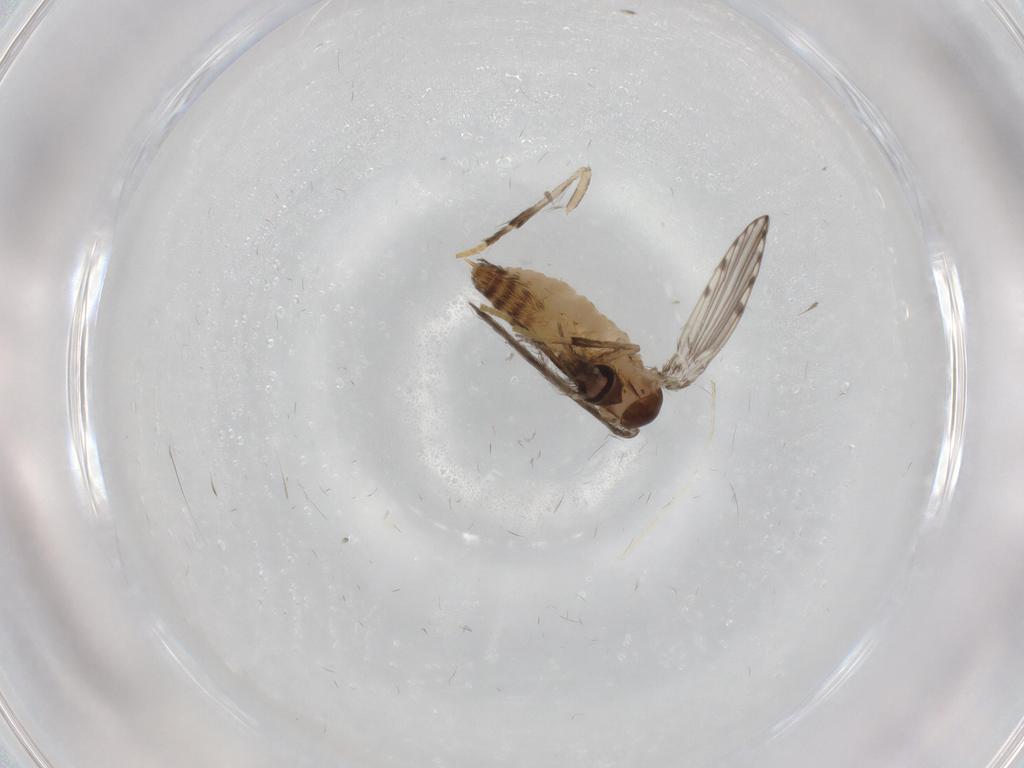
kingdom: Animalia
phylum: Arthropoda
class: Insecta
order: Diptera
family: Psychodidae
